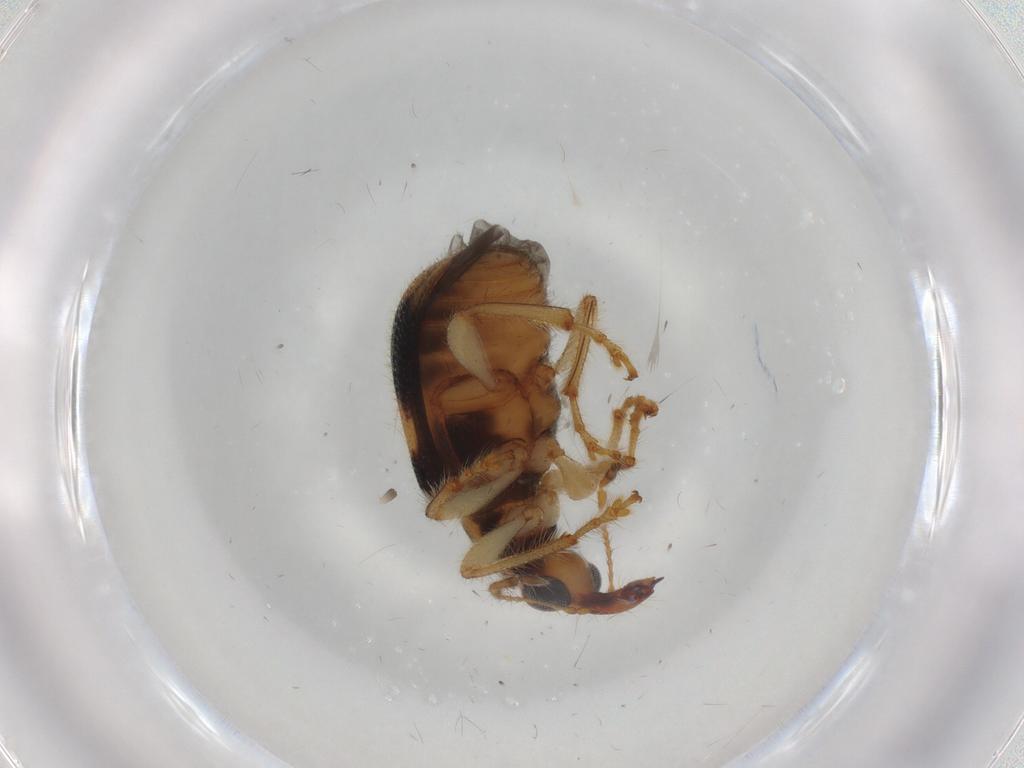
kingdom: Animalia
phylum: Arthropoda
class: Insecta
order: Coleoptera
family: Attelabidae
